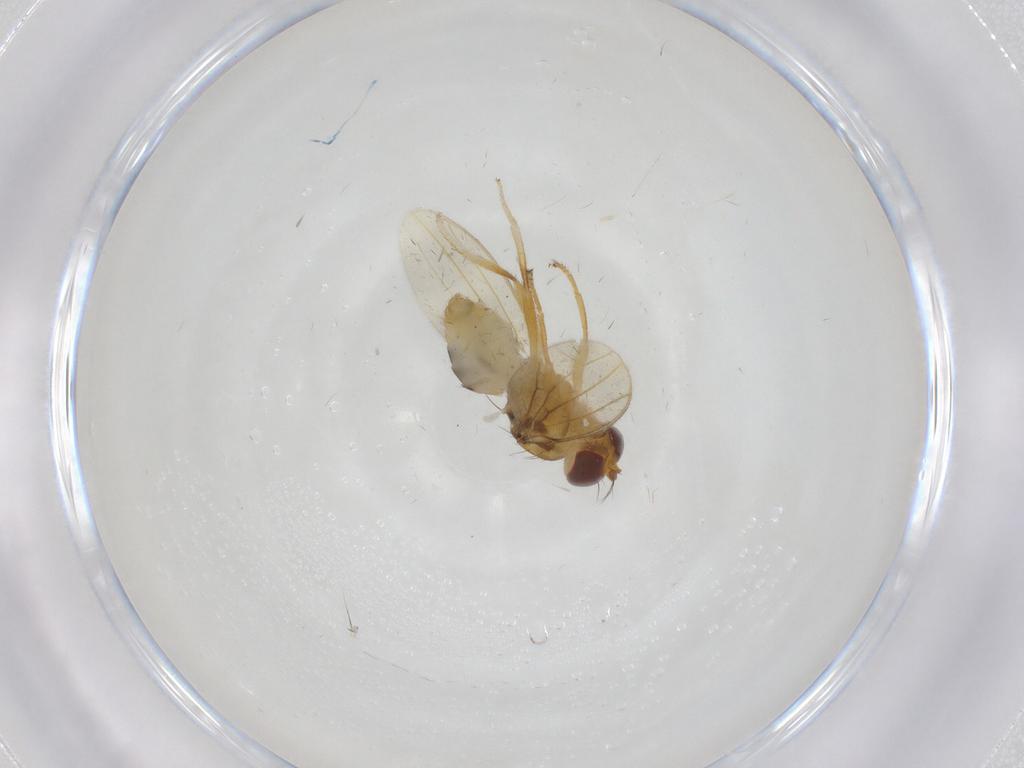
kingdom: Animalia
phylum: Arthropoda
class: Insecta
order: Diptera
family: Periscelididae
